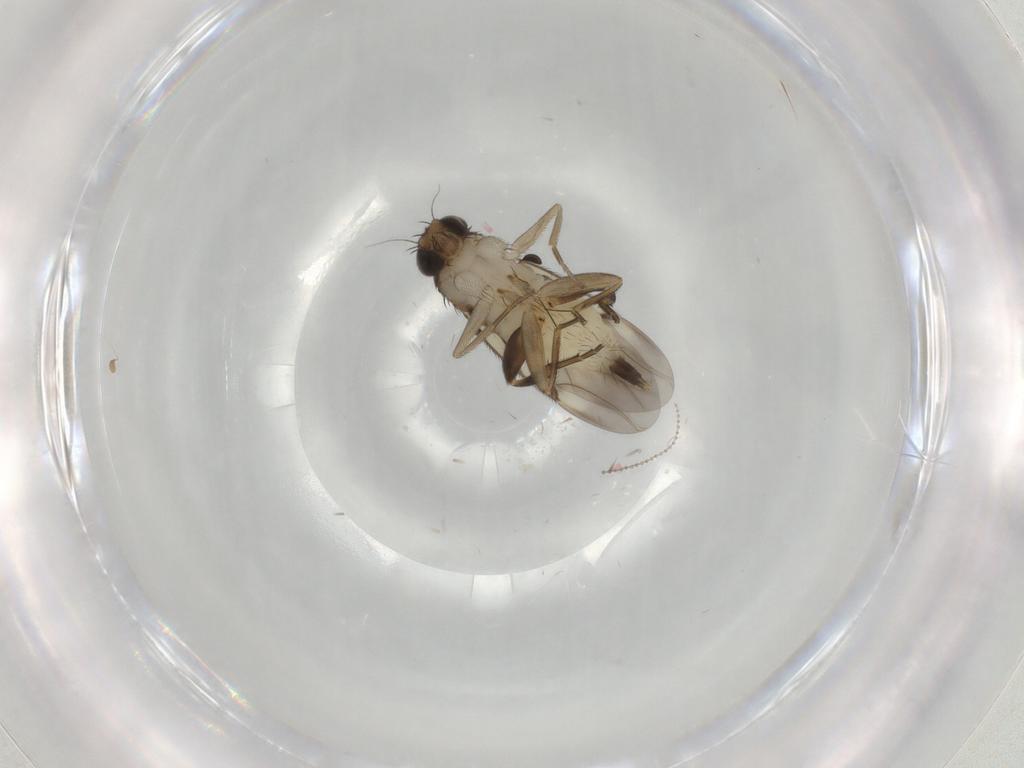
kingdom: Animalia
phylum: Arthropoda
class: Insecta
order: Diptera
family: Phoridae
